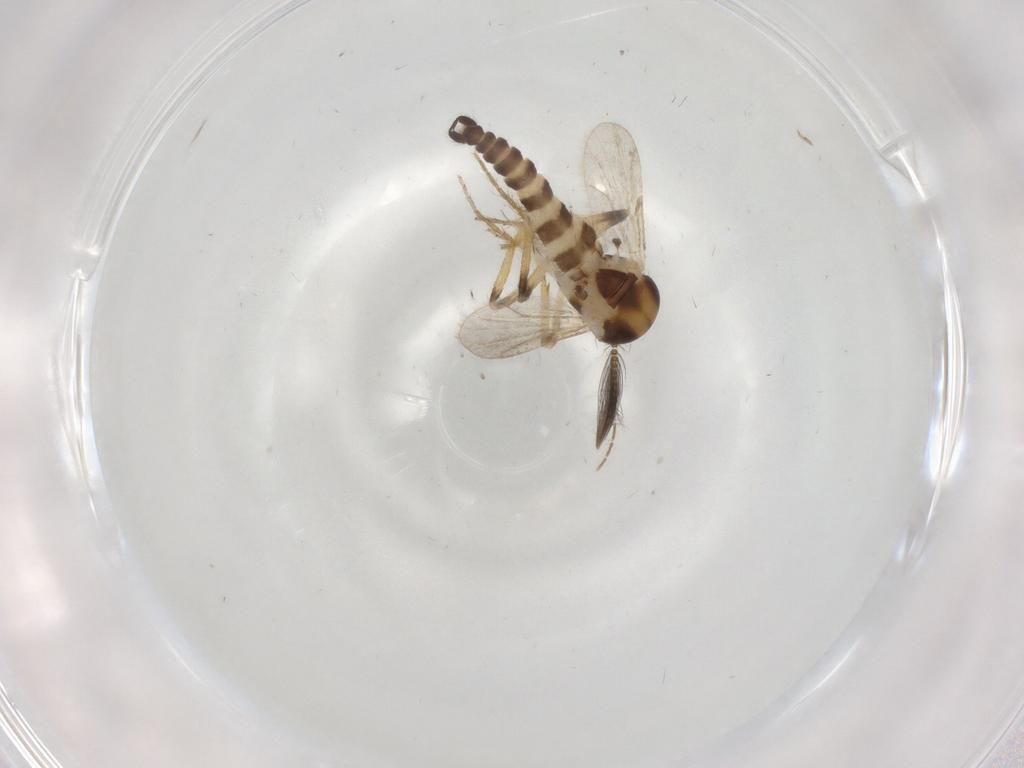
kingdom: Animalia
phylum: Arthropoda
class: Insecta
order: Diptera
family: Ceratopogonidae
